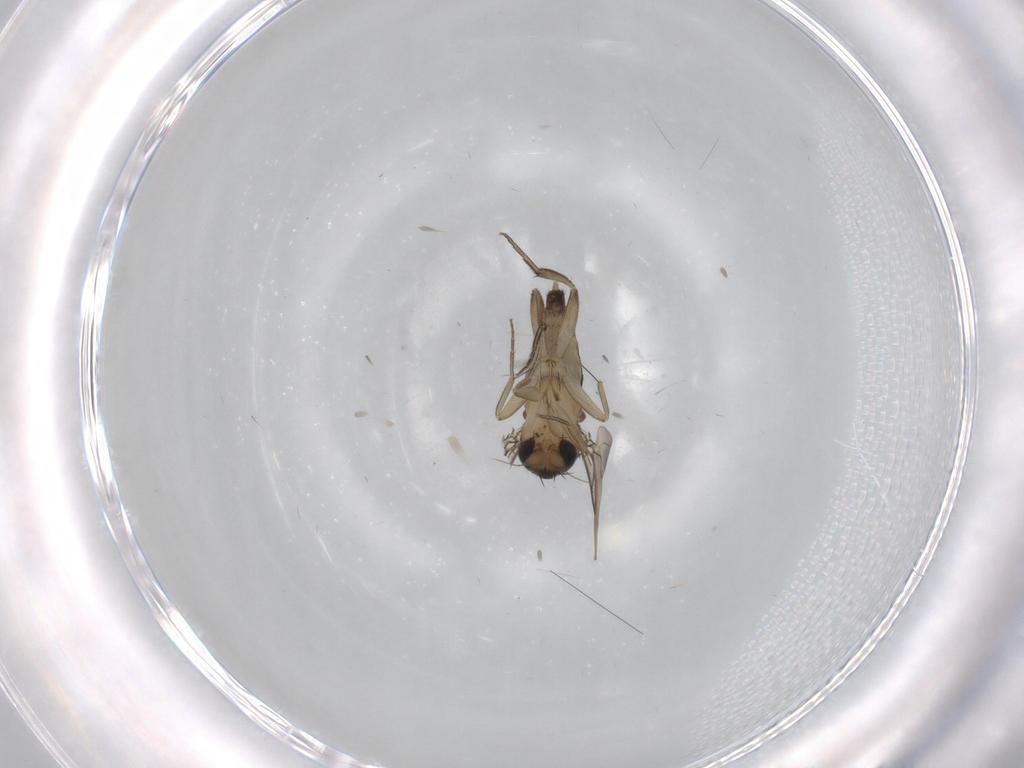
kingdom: Animalia
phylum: Arthropoda
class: Insecta
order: Diptera
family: Phoridae
